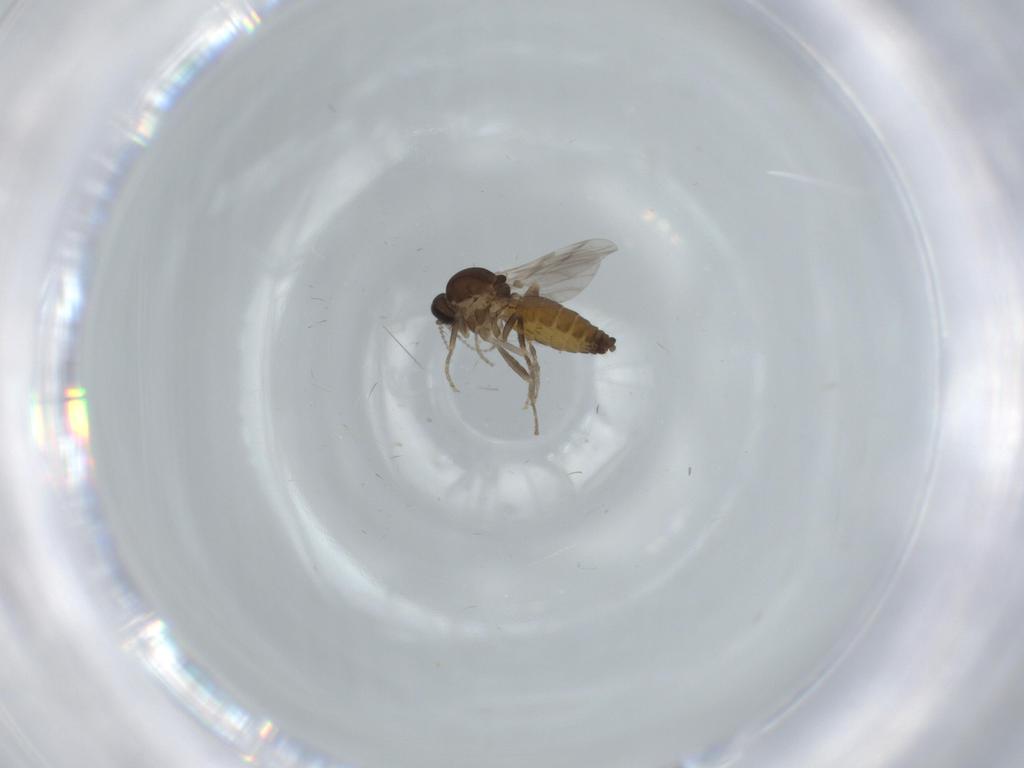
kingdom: Animalia
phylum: Arthropoda
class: Insecta
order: Diptera
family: Ceratopogonidae
